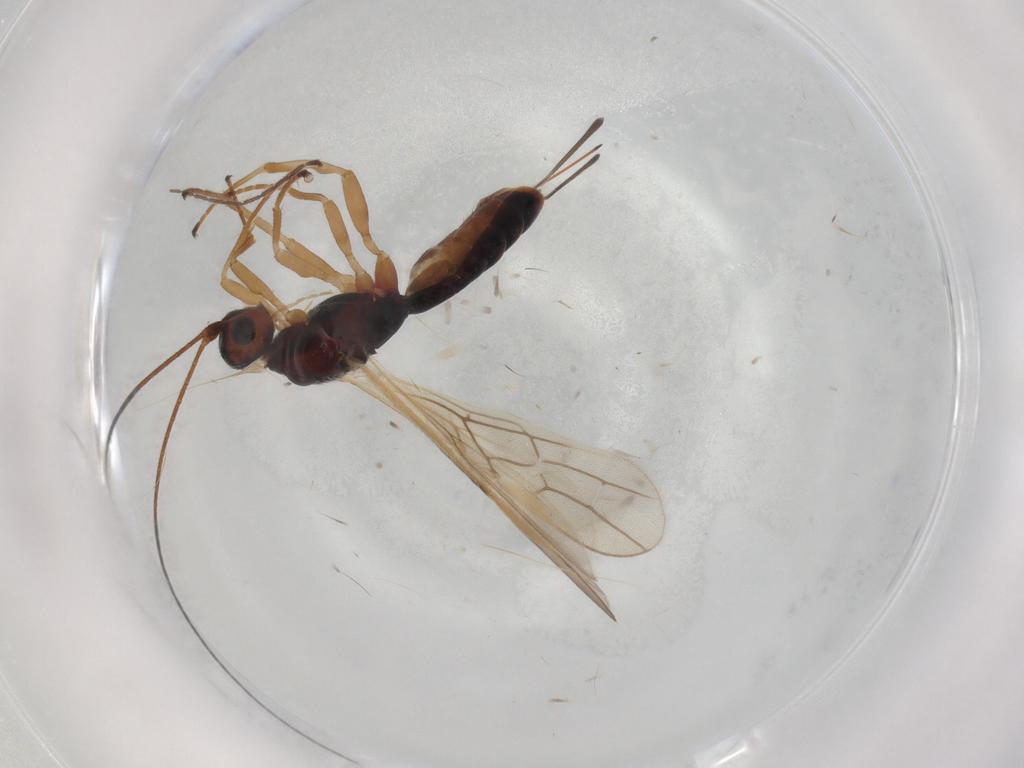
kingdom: Animalia
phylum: Arthropoda
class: Insecta
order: Hymenoptera
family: Braconidae
